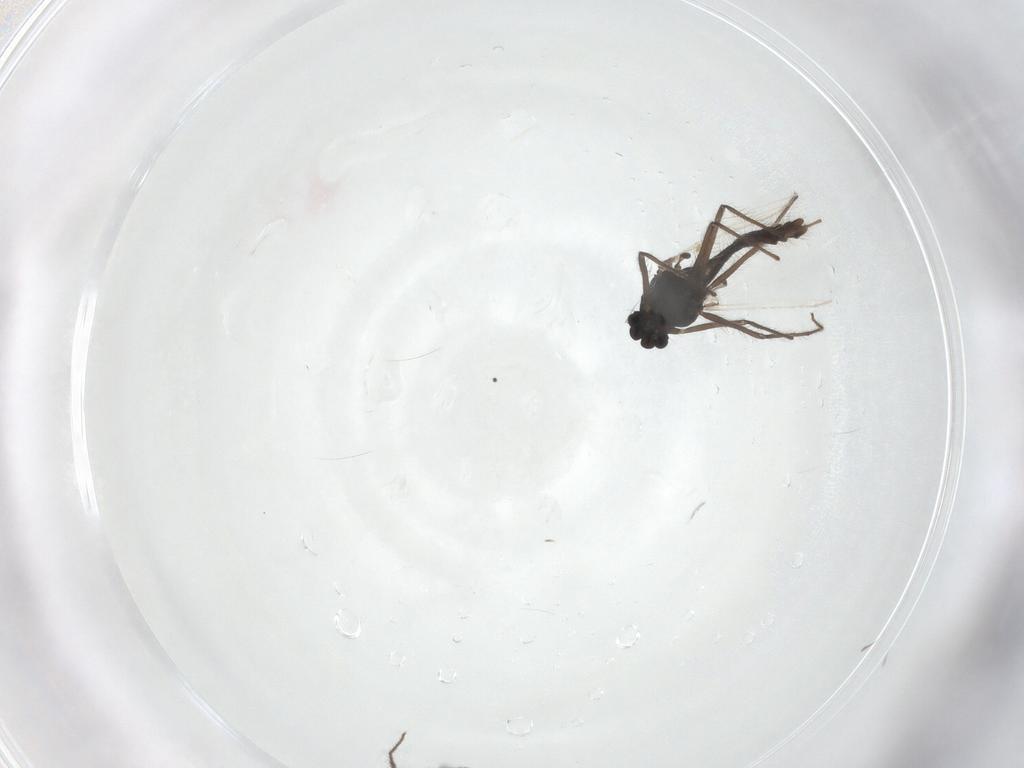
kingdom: Animalia
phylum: Arthropoda
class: Insecta
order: Diptera
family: Chironomidae
